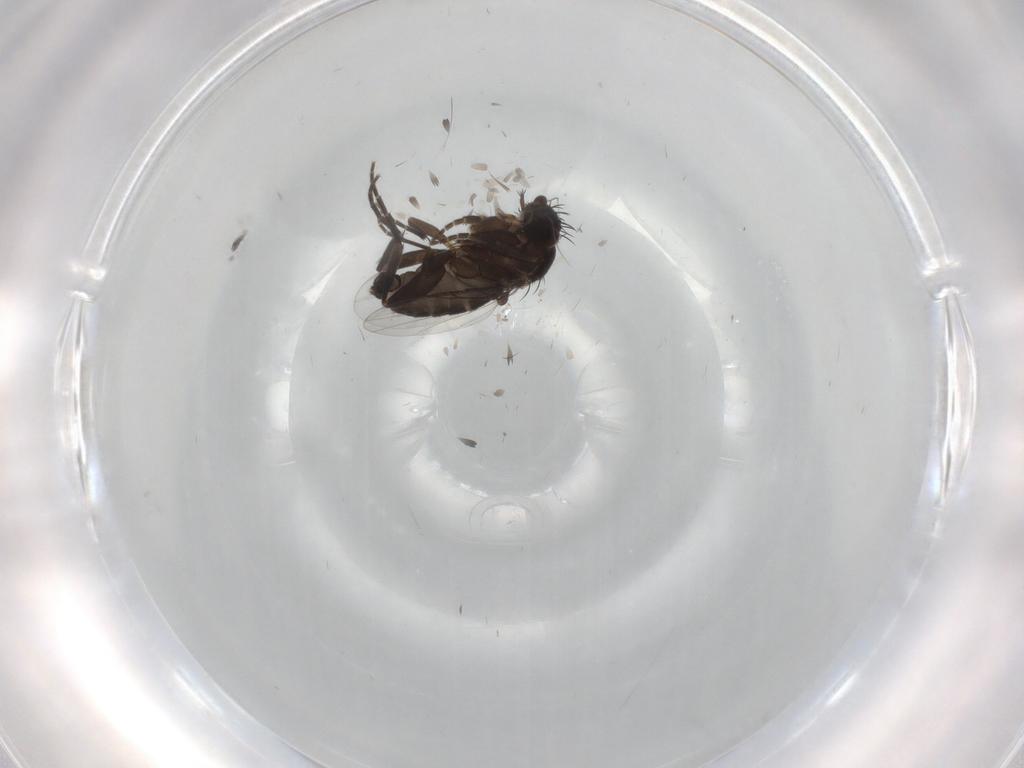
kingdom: Animalia
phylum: Arthropoda
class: Insecta
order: Diptera
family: Phoridae
